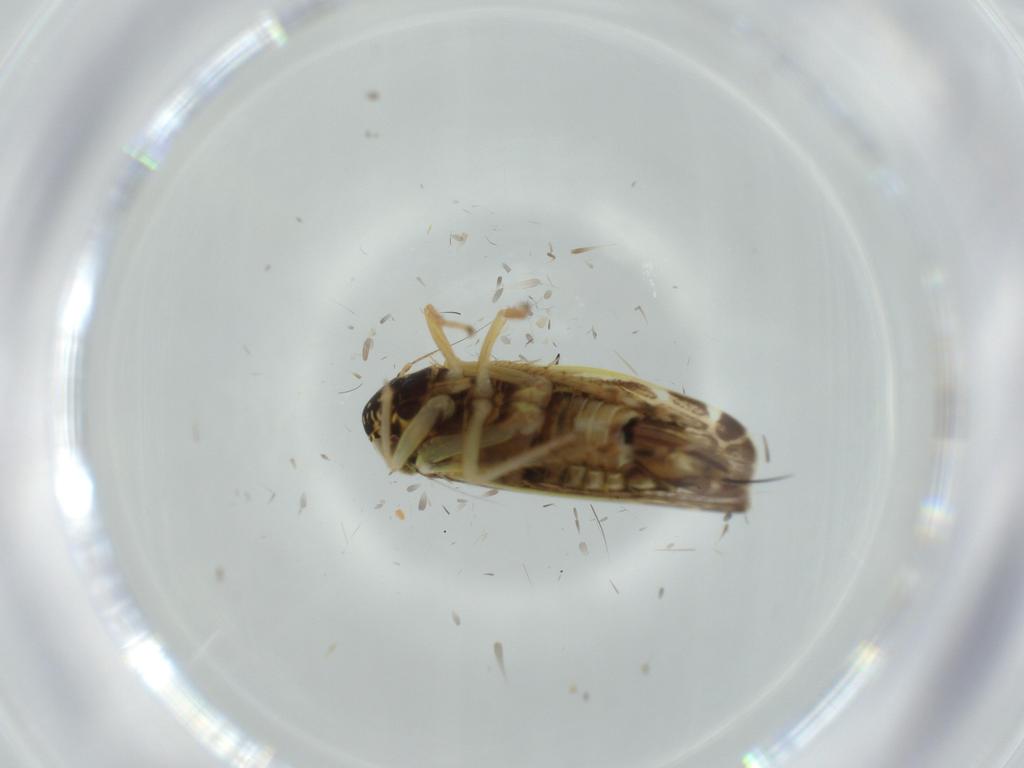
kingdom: Animalia
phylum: Arthropoda
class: Insecta
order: Hemiptera
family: Cicadellidae
